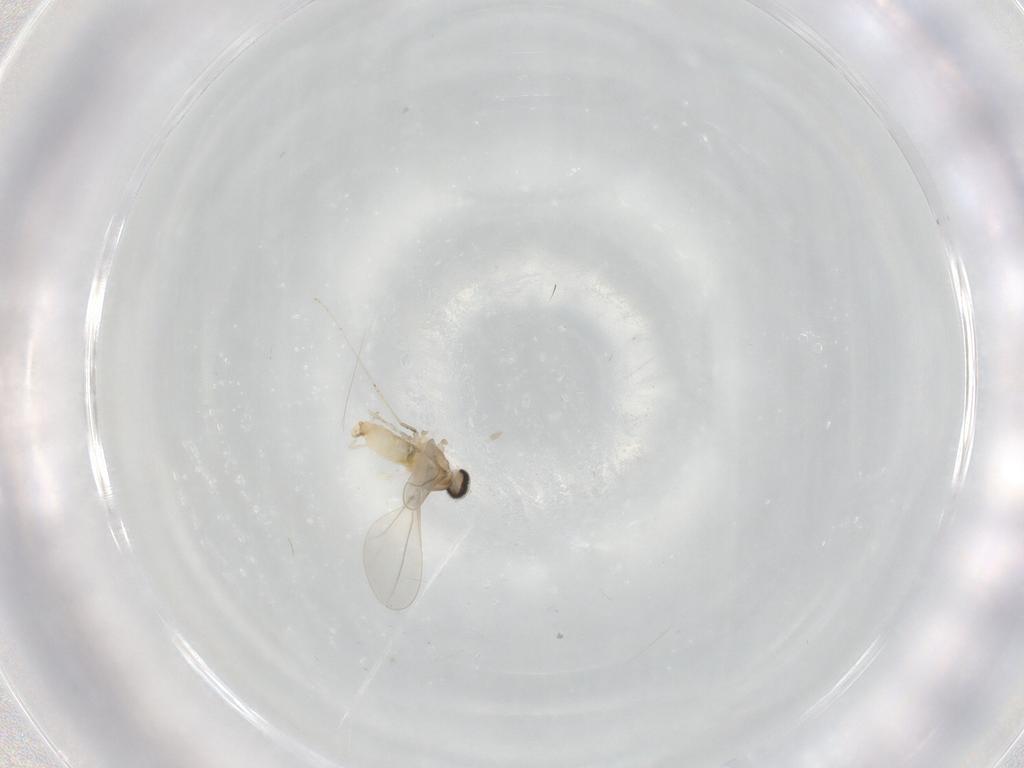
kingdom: Animalia
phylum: Arthropoda
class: Insecta
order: Diptera
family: Cecidomyiidae
